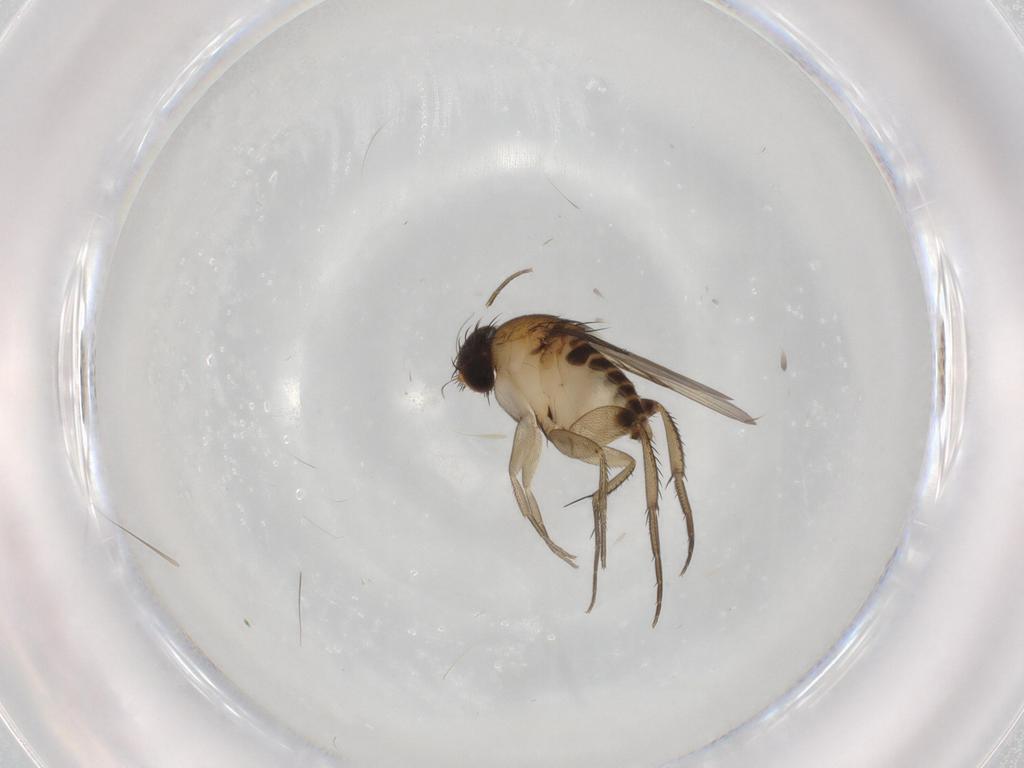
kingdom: Animalia
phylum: Arthropoda
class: Insecta
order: Diptera
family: Phoridae
